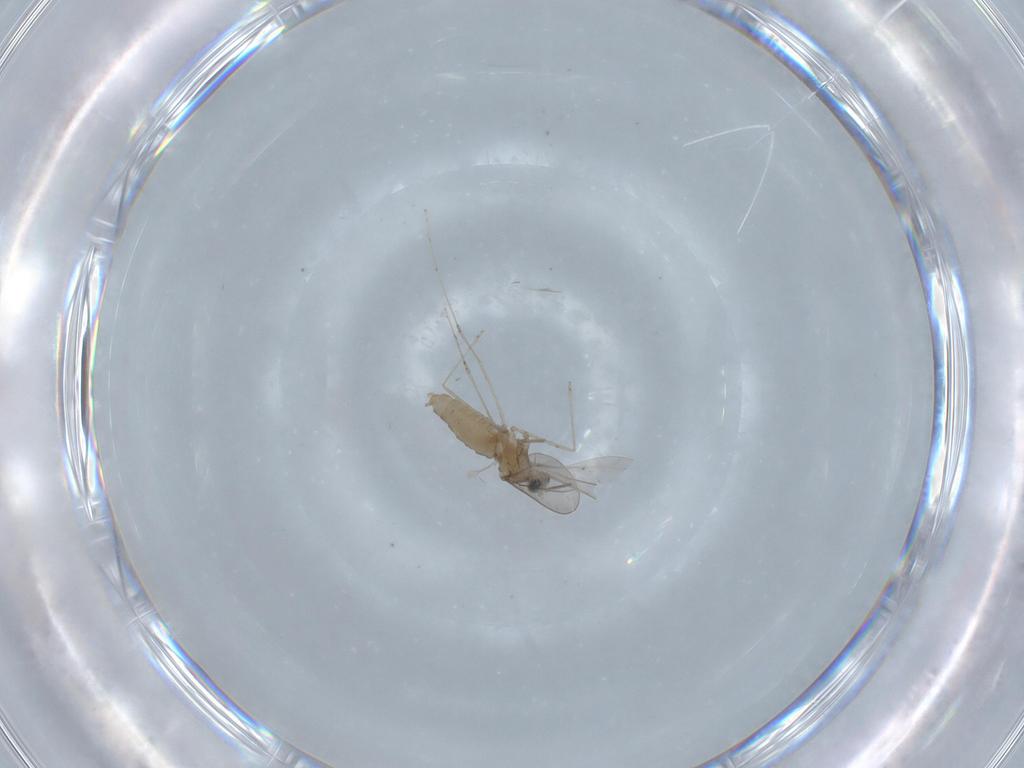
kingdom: Animalia
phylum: Arthropoda
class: Insecta
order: Diptera
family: Cecidomyiidae
